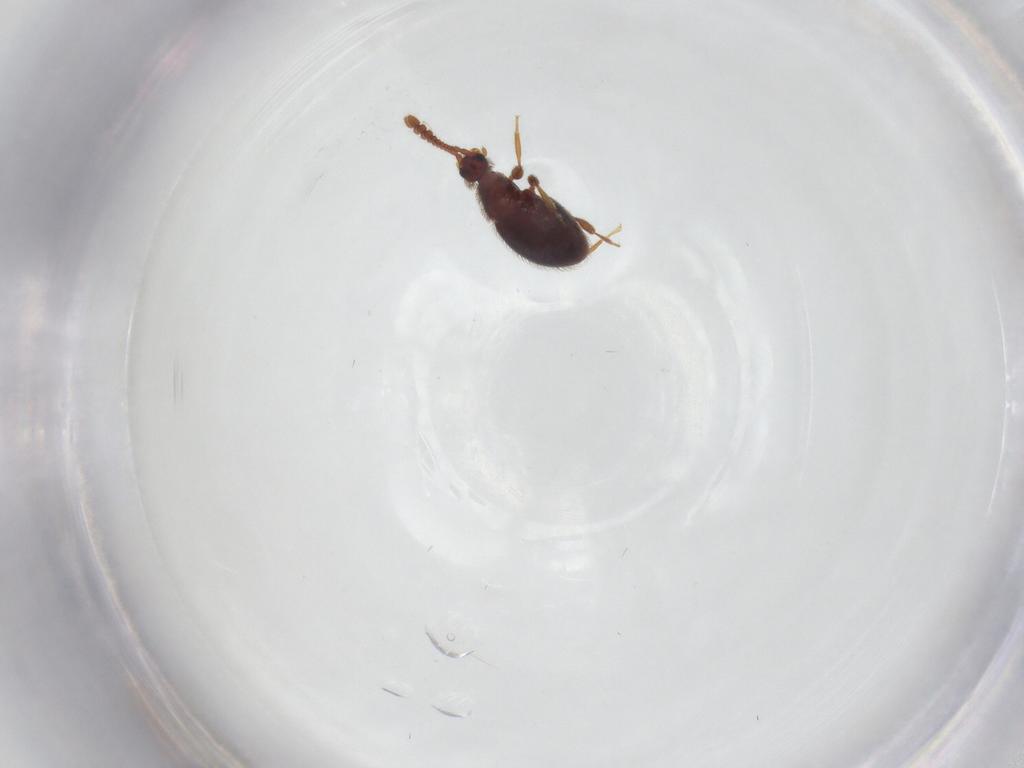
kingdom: Animalia
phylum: Arthropoda
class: Insecta
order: Coleoptera
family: Staphylinidae
